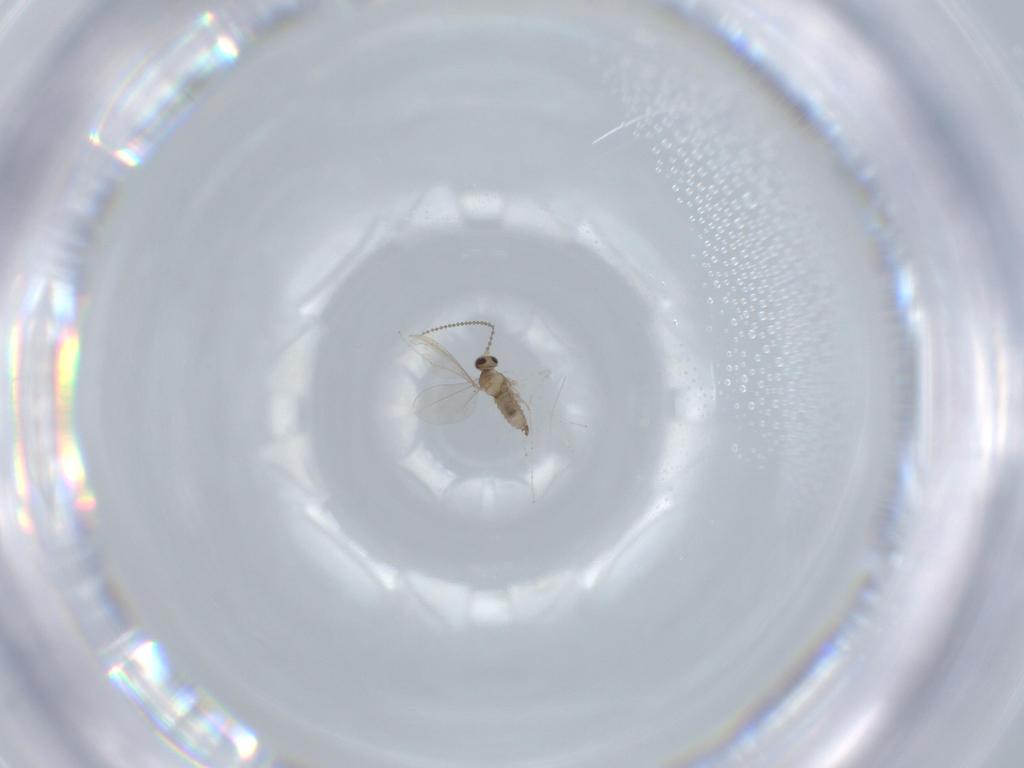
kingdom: Animalia
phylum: Arthropoda
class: Insecta
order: Diptera
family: Cecidomyiidae
